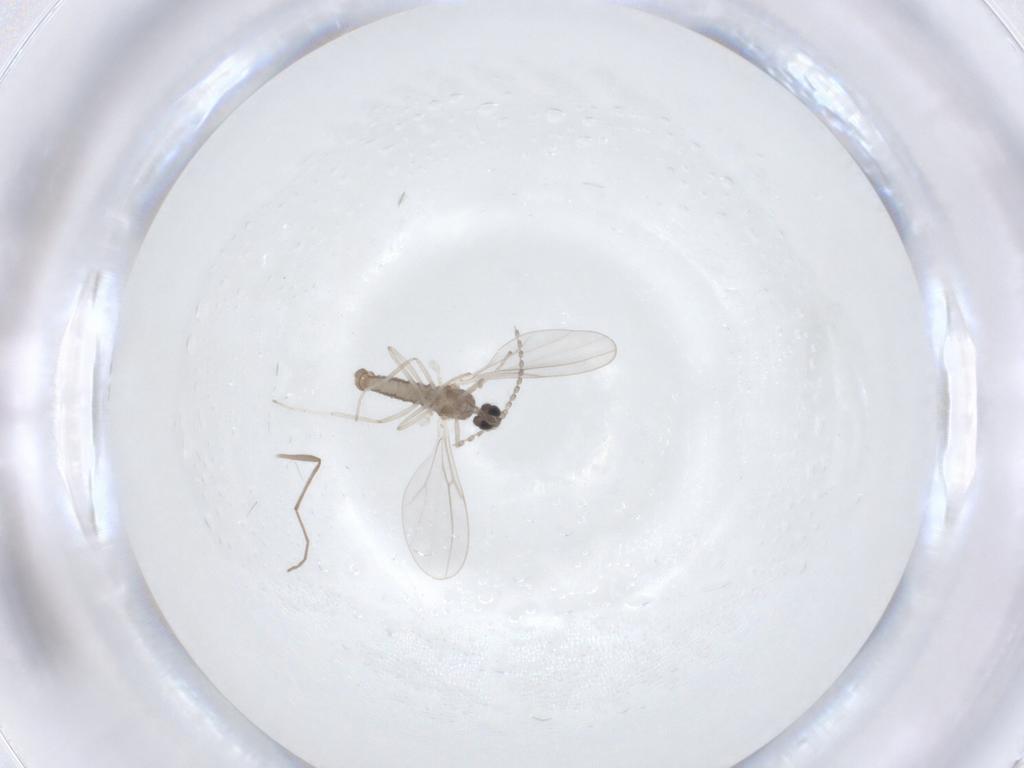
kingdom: Animalia
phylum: Arthropoda
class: Insecta
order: Diptera
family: Cecidomyiidae
